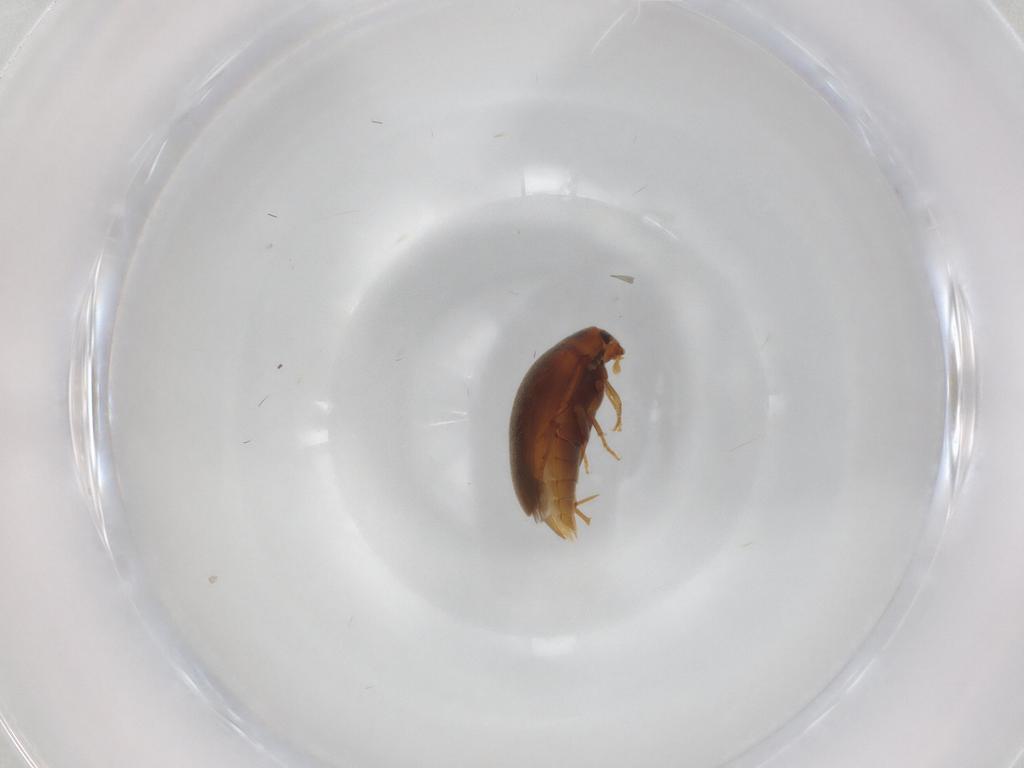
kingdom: Animalia
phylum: Arthropoda
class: Insecta
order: Coleoptera
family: Melandryidae
